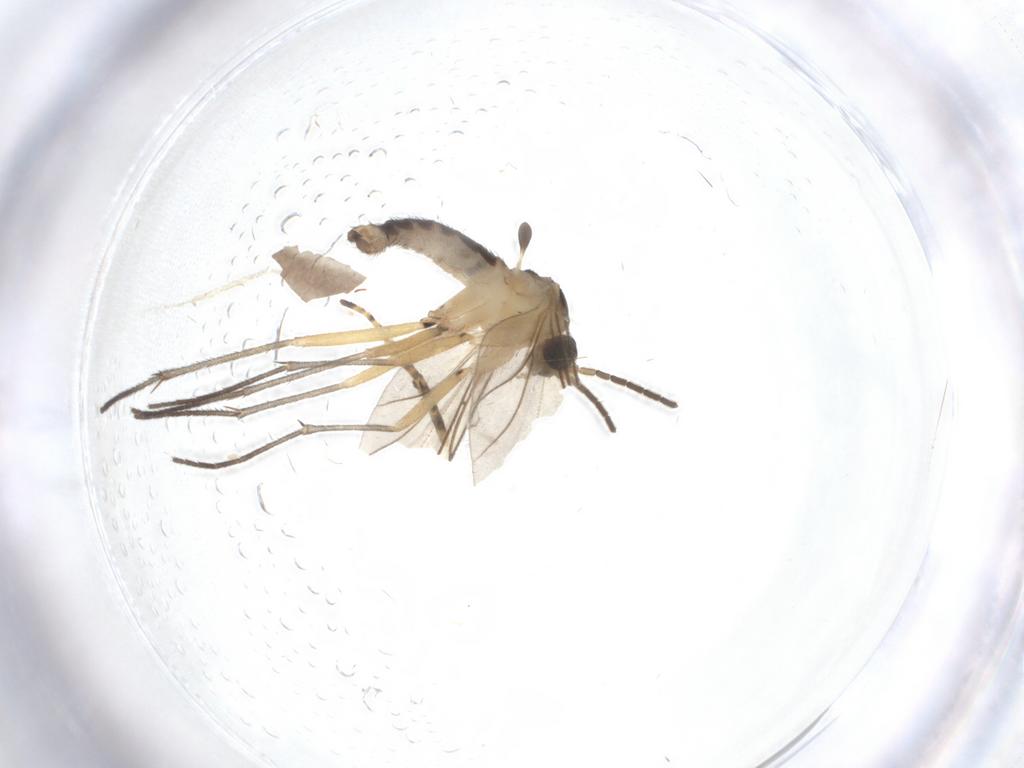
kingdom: Animalia
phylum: Arthropoda
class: Insecta
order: Diptera
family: Sciaridae
